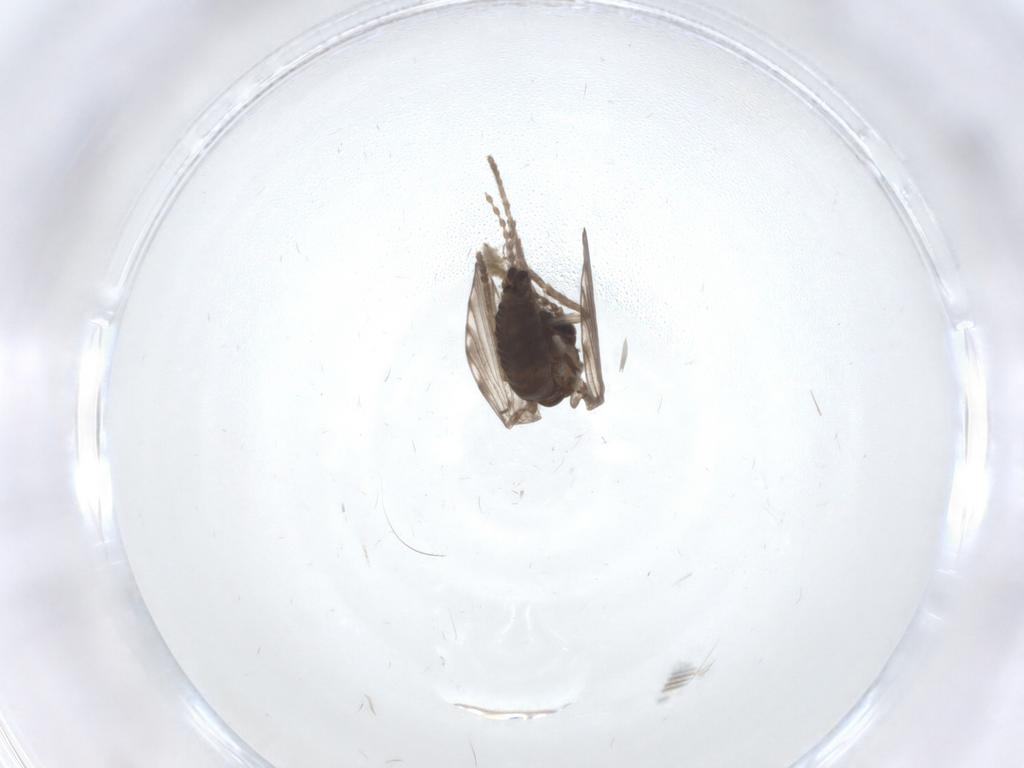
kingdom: Animalia
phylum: Arthropoda
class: Insecta
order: Diptera
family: Psychodidae
